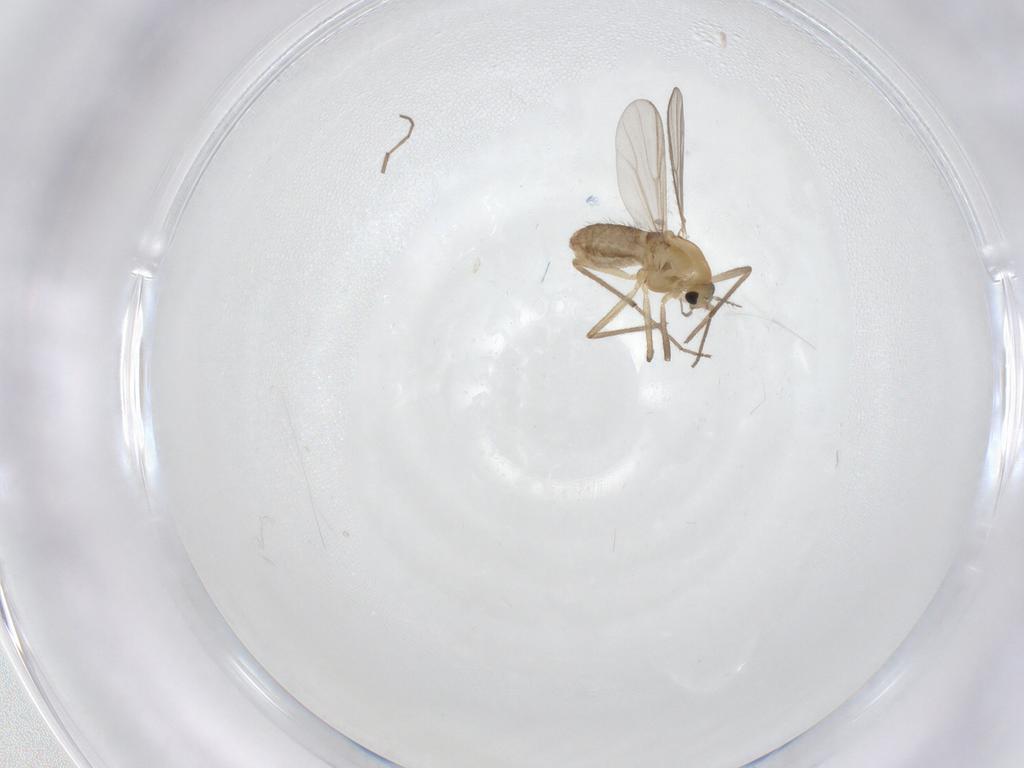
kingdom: Animalia
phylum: Arthropoda
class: Insecta
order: Diptera
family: Chironomidae
